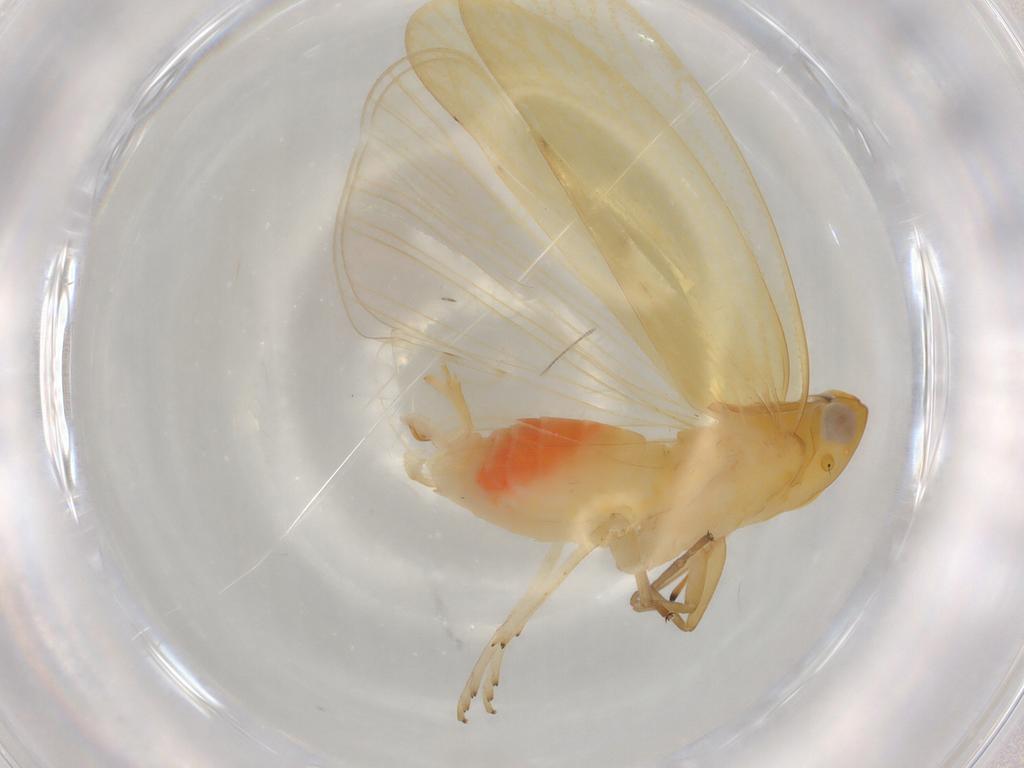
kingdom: Animalia
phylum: Arthropoda
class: Insecta
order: Hemiptera
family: Cixiidae
